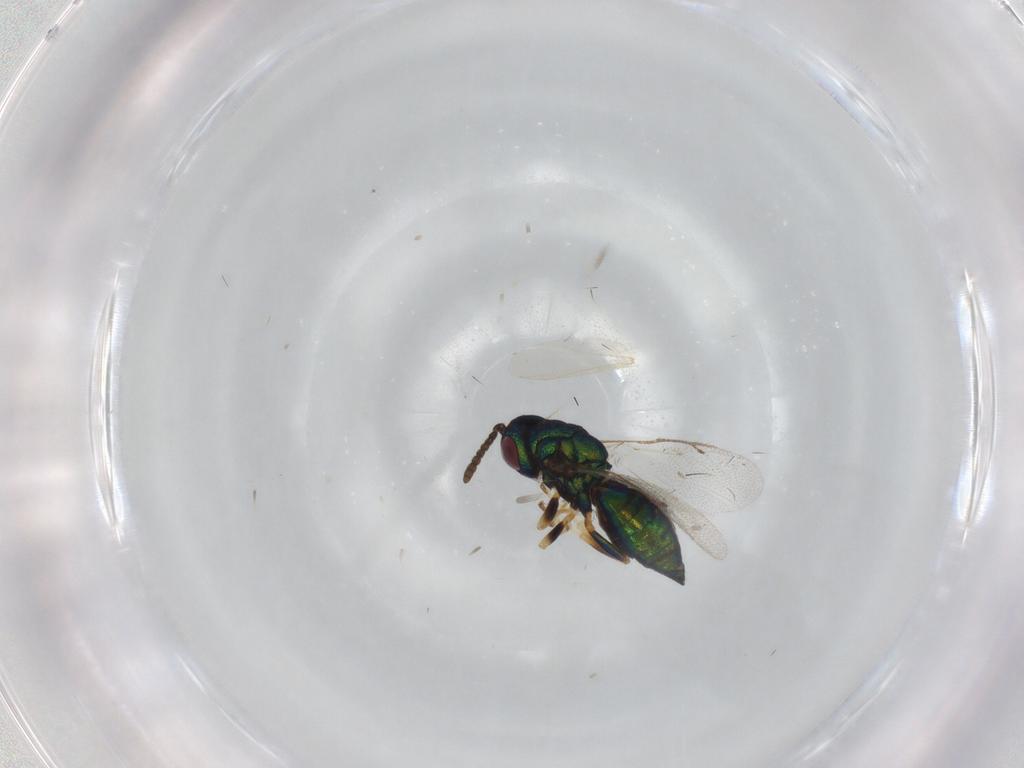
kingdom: Animalia
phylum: Arthropoda
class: Insecta
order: Hymenoptera
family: Pteromalidae
